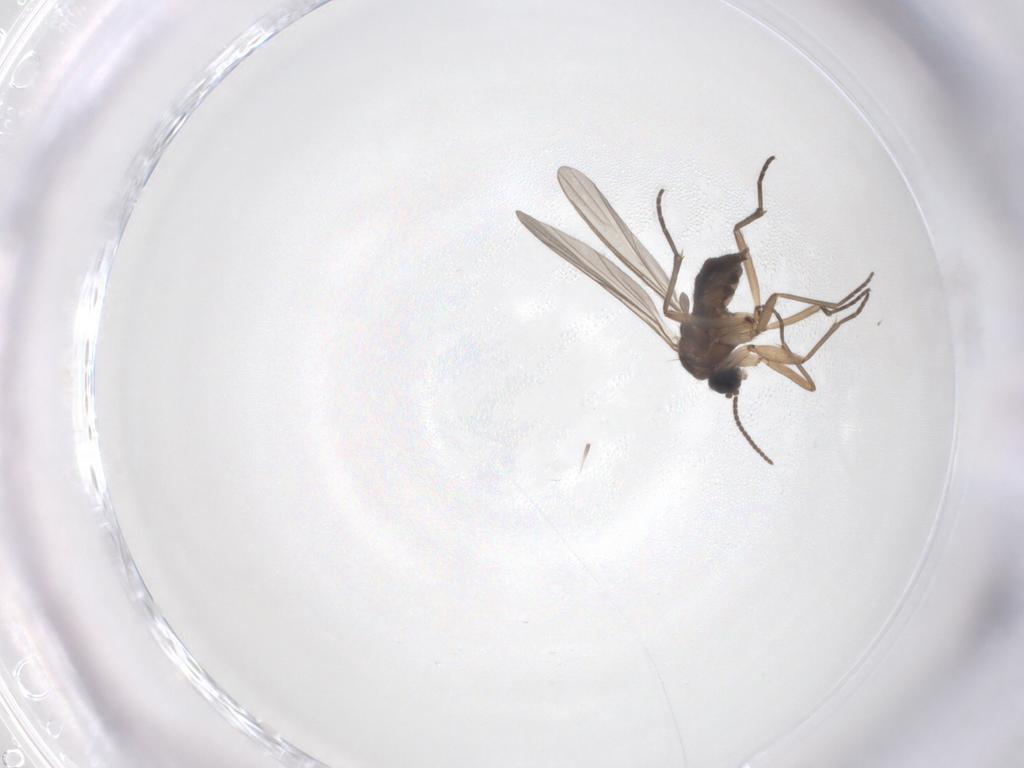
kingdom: Animalia
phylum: Arthropoda
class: Insecta
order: Diptera
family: Sciaridae
